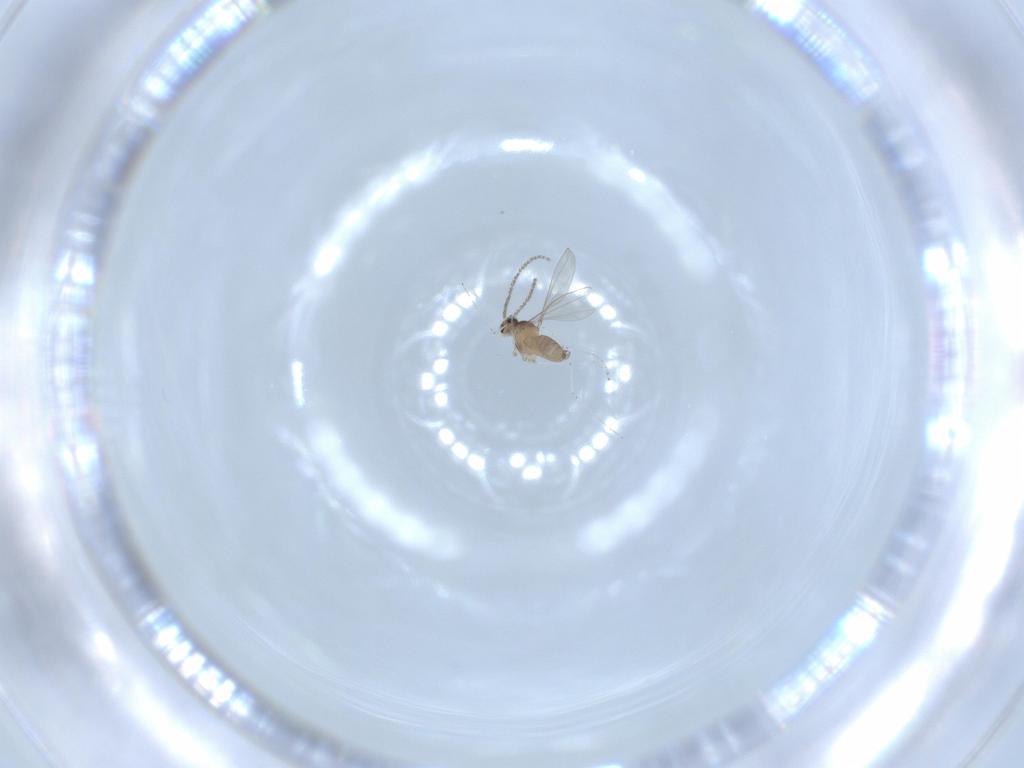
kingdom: Animalia
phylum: Arthropoda
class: Insecta
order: Diptera
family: Cecidomyiidae
